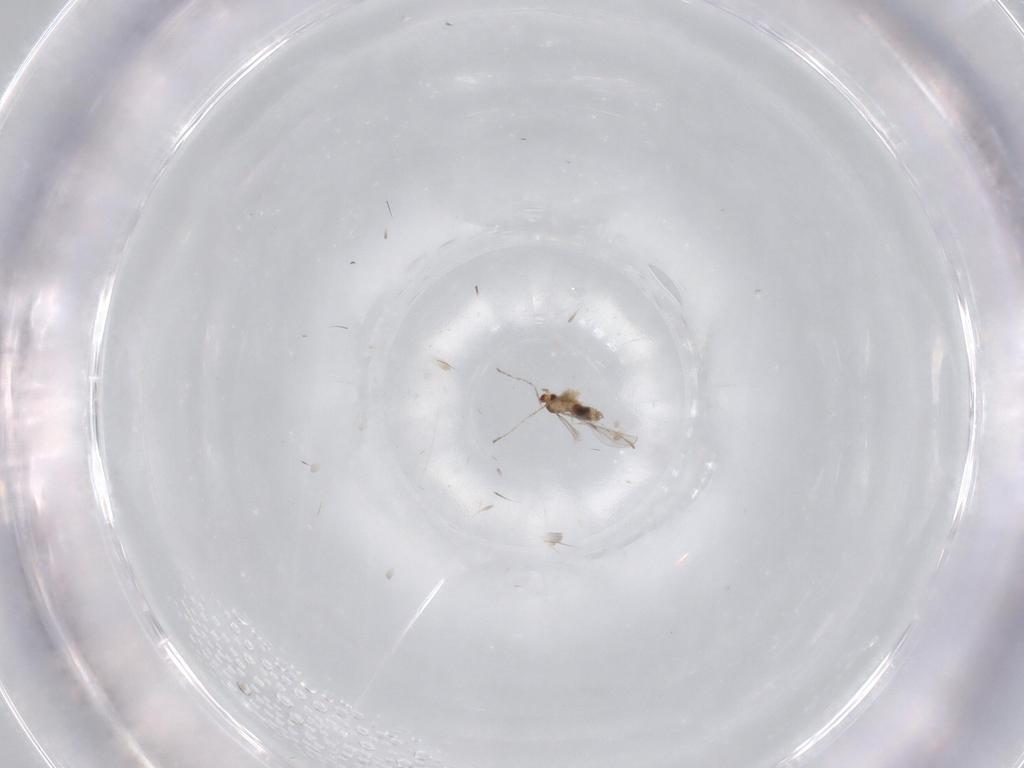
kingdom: Animalia
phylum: Arthropoda
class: Insecta
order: Diptera
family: Cecidomyiidae
